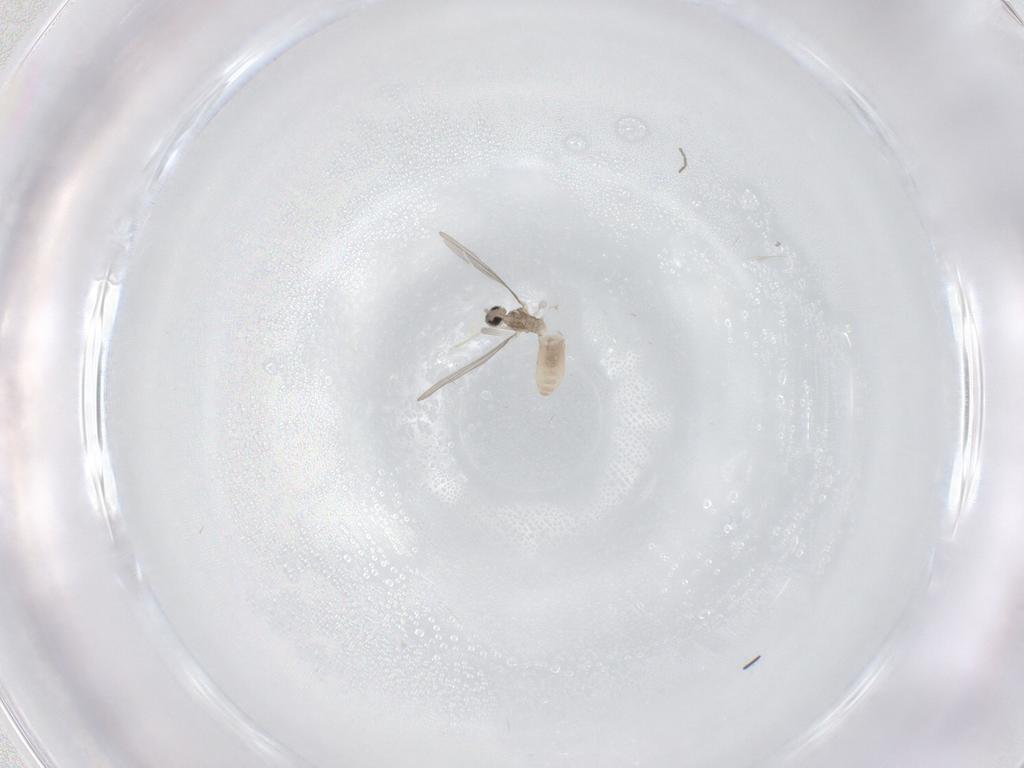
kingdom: Animalia
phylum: Arthropoda
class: Insecta
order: Diptera
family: Cecidomyiidae
